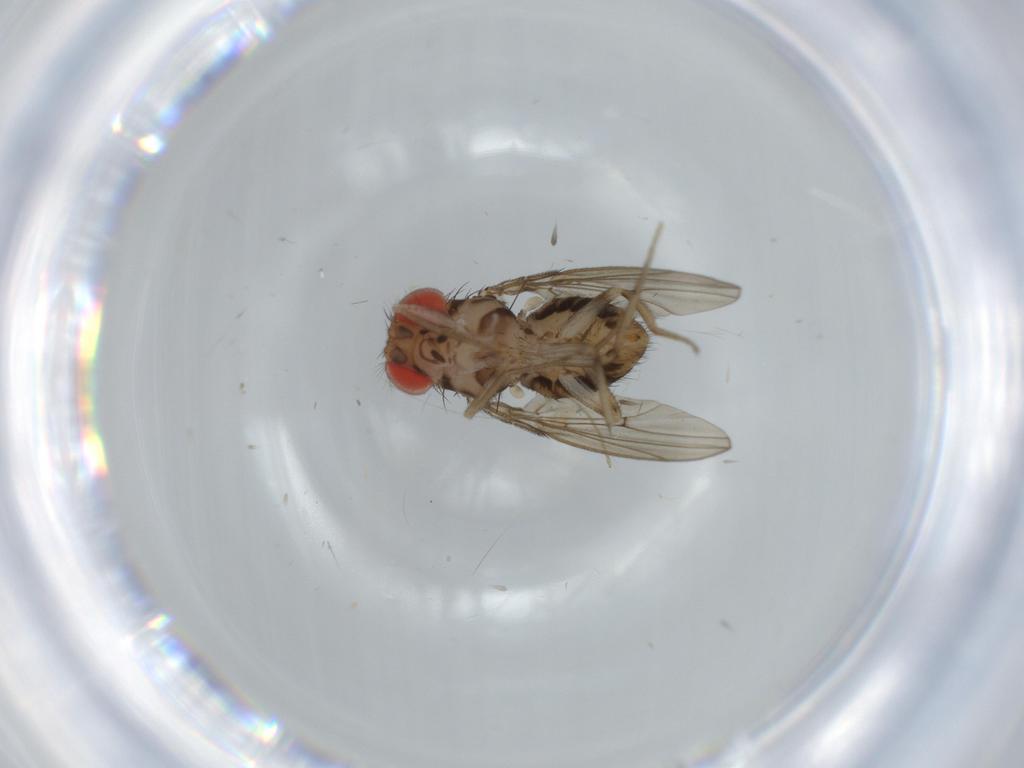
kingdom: Animalia
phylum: Arthropoda
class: Insecta
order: Diptera
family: Drosophilidae
